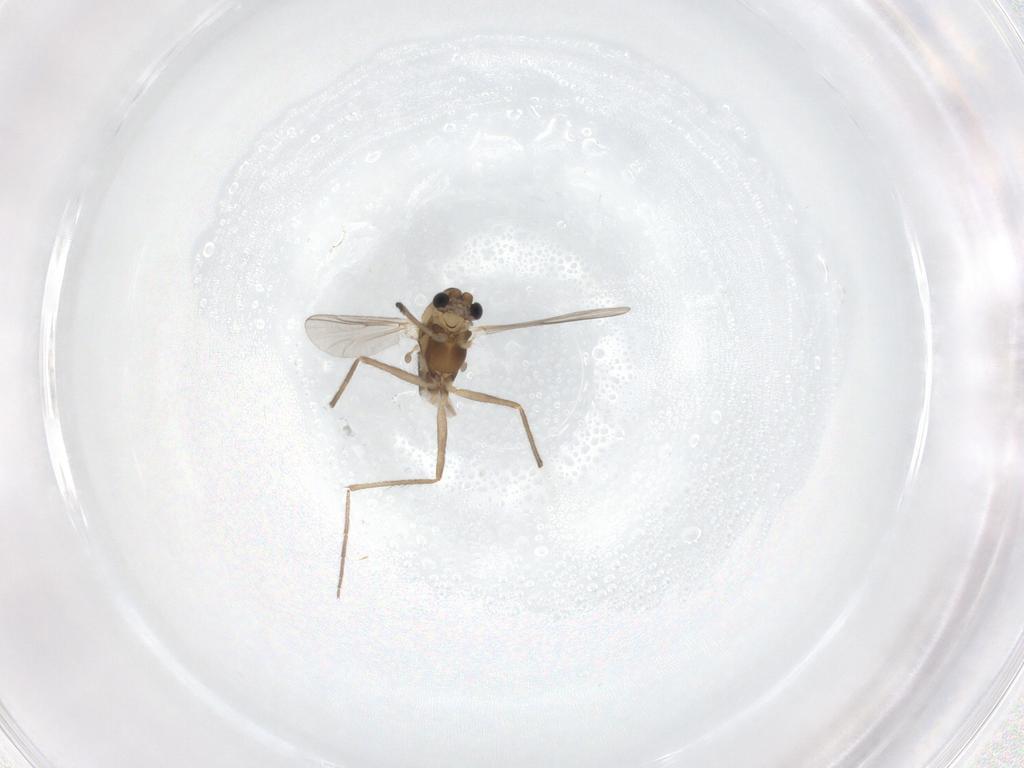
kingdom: Animalia
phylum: Arthropoda
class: Insecta
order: Diptera
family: Chironomidae
